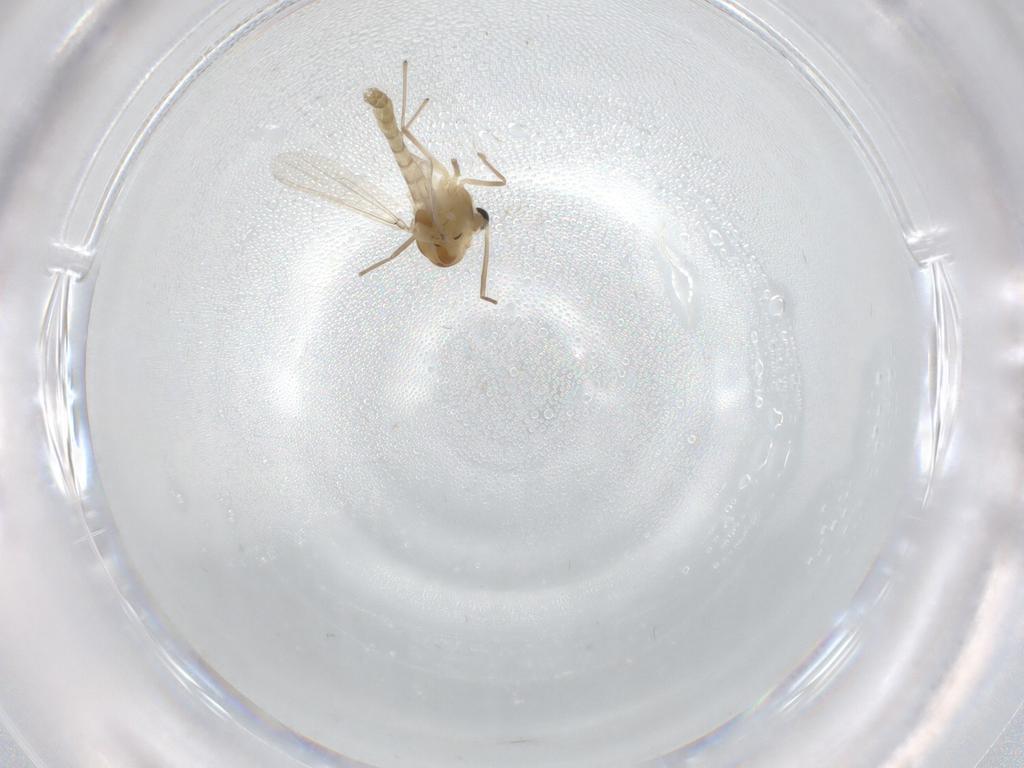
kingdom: Animalia
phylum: Arthropoda
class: Insecta
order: Diptera
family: Chironomidae
